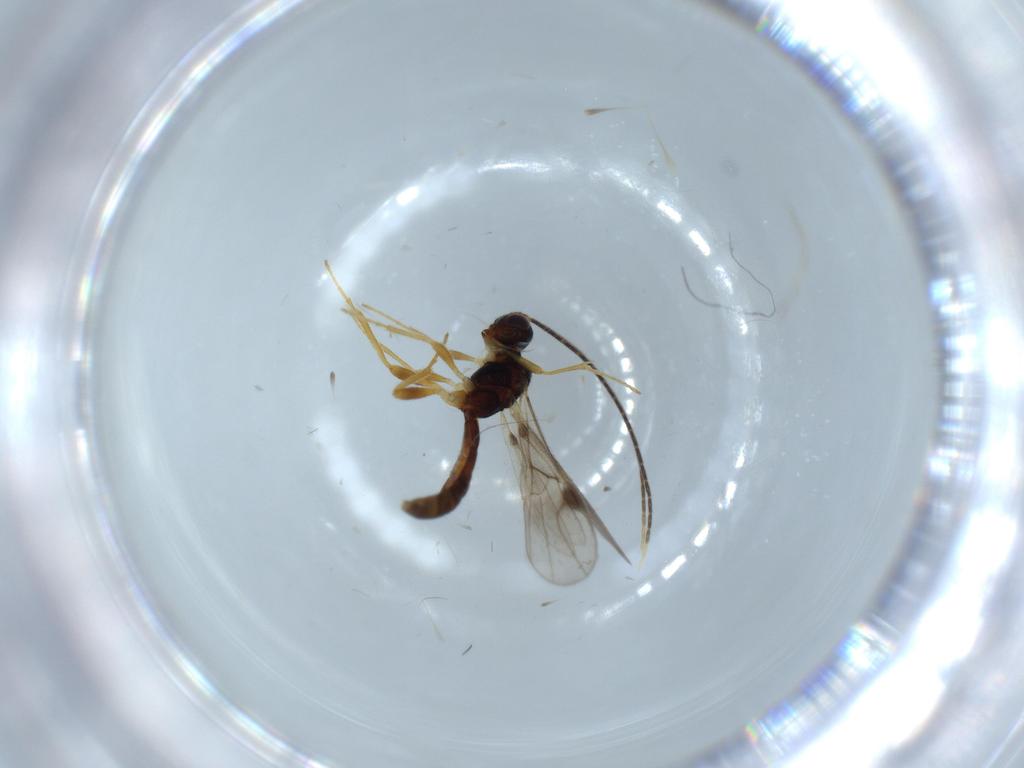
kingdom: Animalia
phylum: Arthropoda
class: Insecta
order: Hymenoptera
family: Diapriidae
